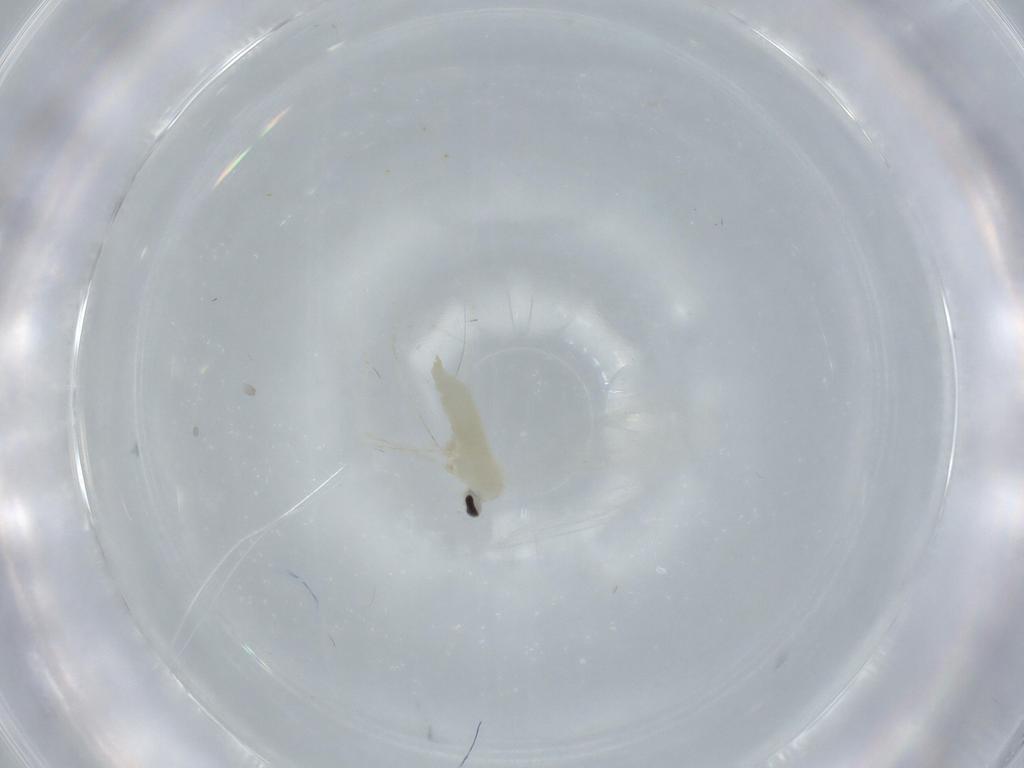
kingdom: Animalia
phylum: Arthropoda
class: Insecta
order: Diptera
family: Cecidomyiidae
